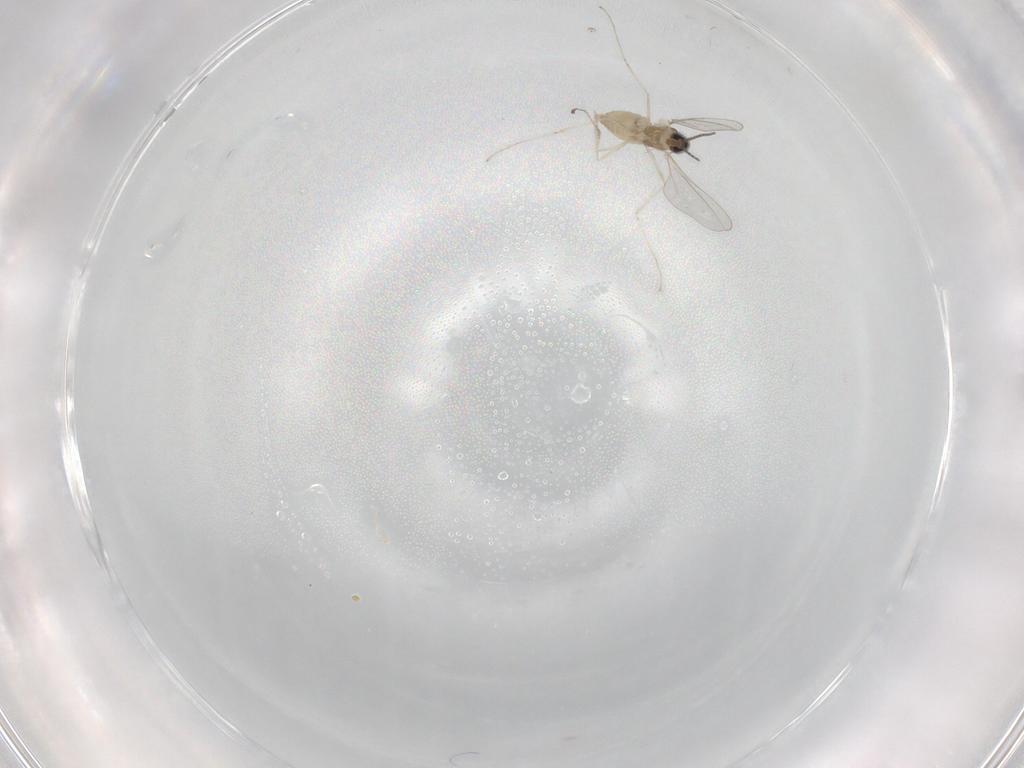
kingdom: Animalia
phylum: Arthropoda
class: Insecta
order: Diptera
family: Cecidomyiidae
